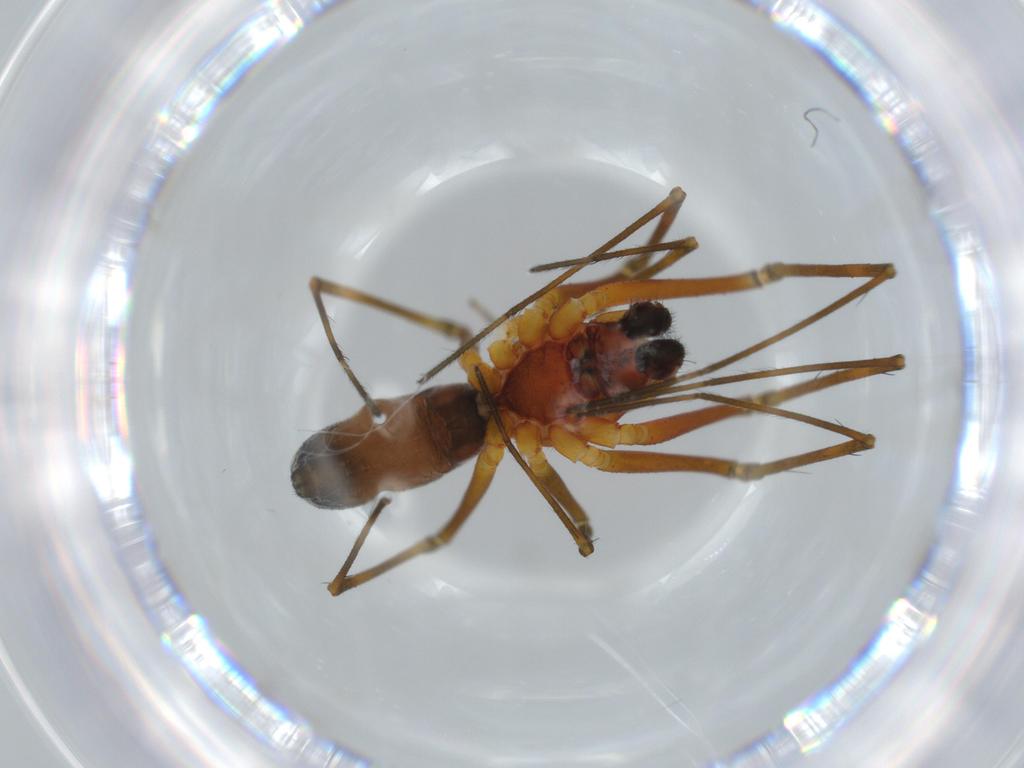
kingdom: Animalia
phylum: Arthropoda
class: Arachnida
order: Araneae
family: Linyphiidae
